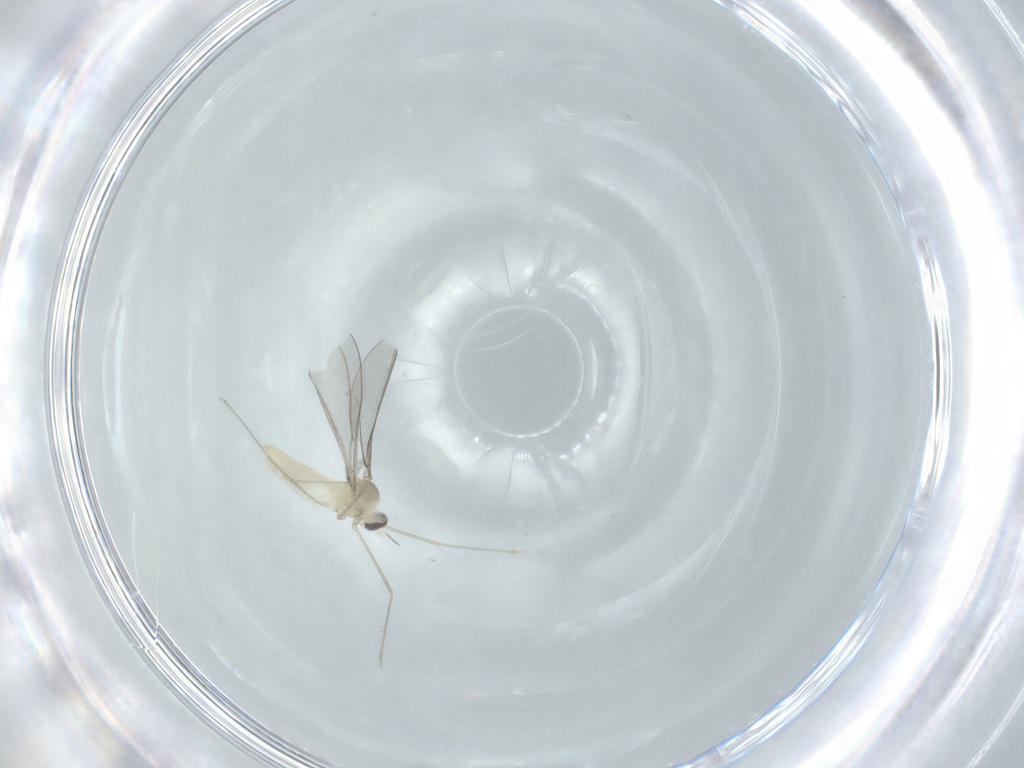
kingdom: Animalia
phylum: Arthropoda
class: Insecta
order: Diptera
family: Cecidomyiidae
